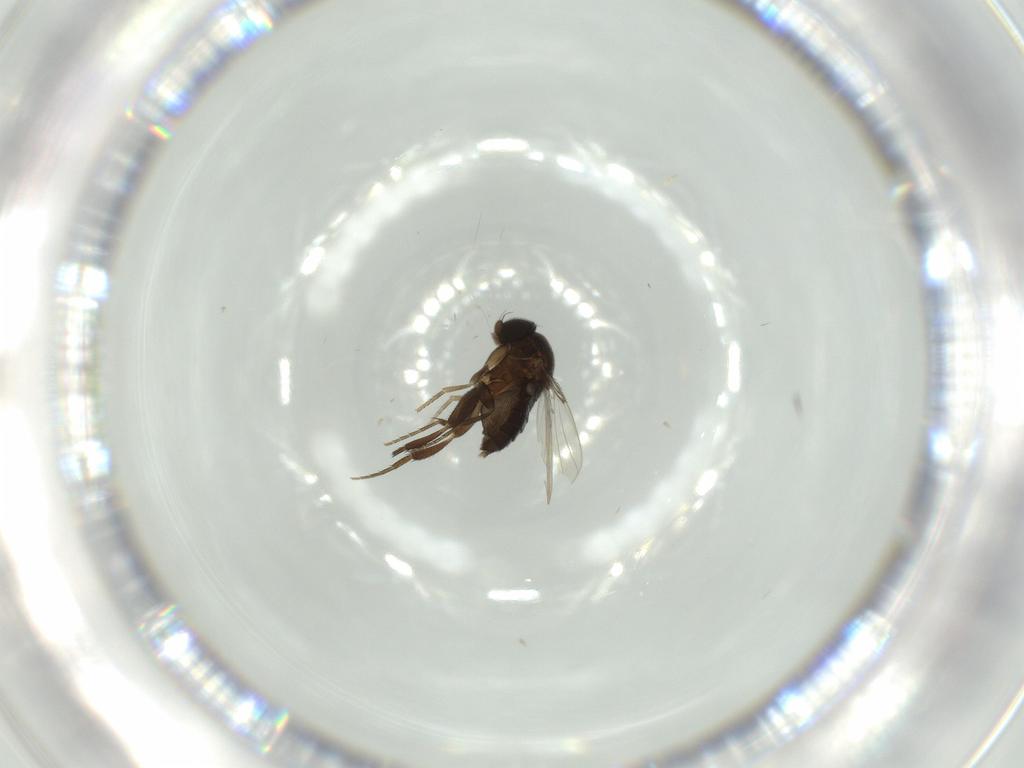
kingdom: Animalia
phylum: Arthropoda
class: Insecta
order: Diptera
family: Phoridae
